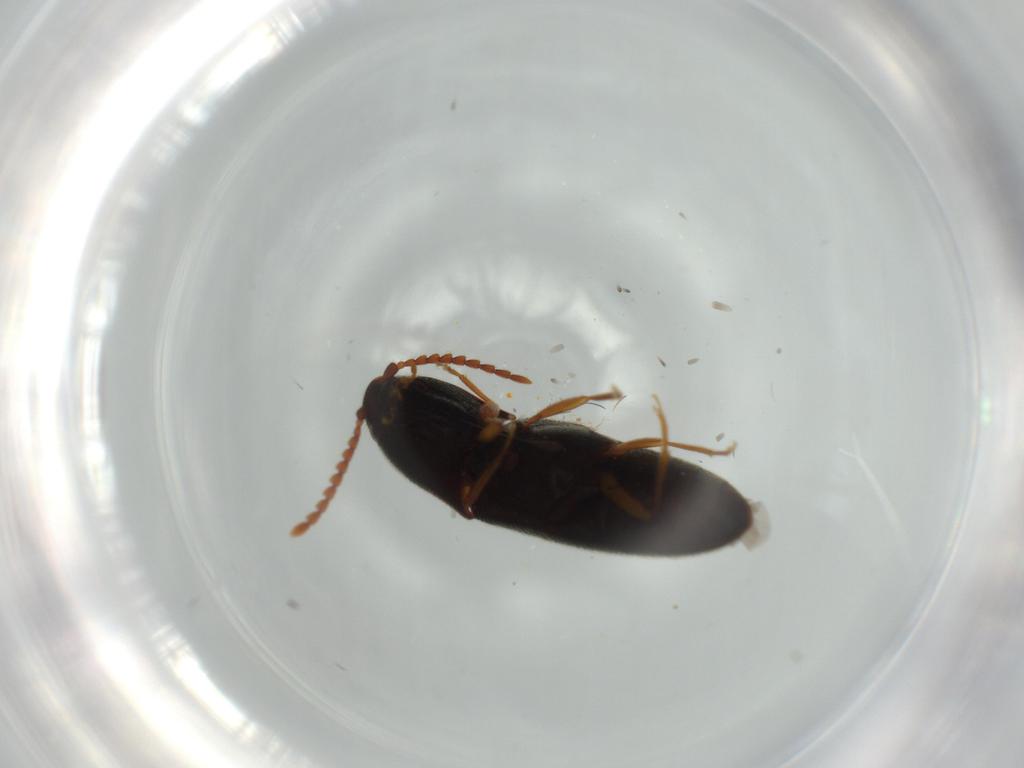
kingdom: Animalia
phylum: Arthropoda
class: Insecta
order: Coleoptera
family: Elateridae
